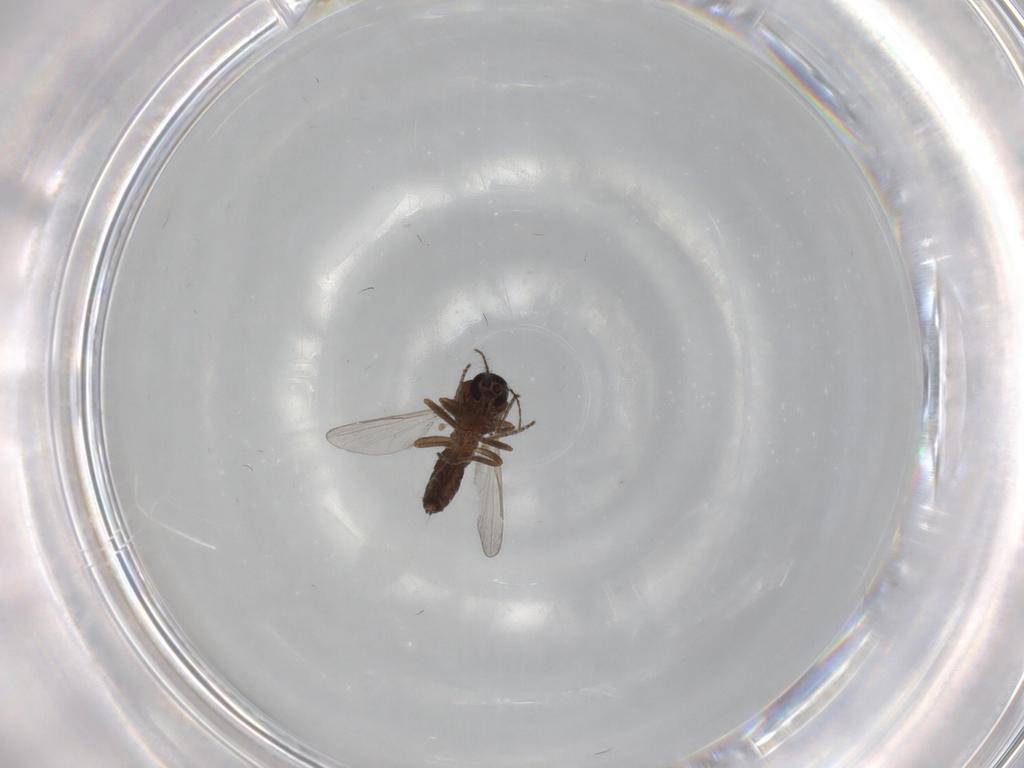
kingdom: Animalia
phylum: Arthropoda
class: Insecta
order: Diptera
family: Ceratopogonidae
